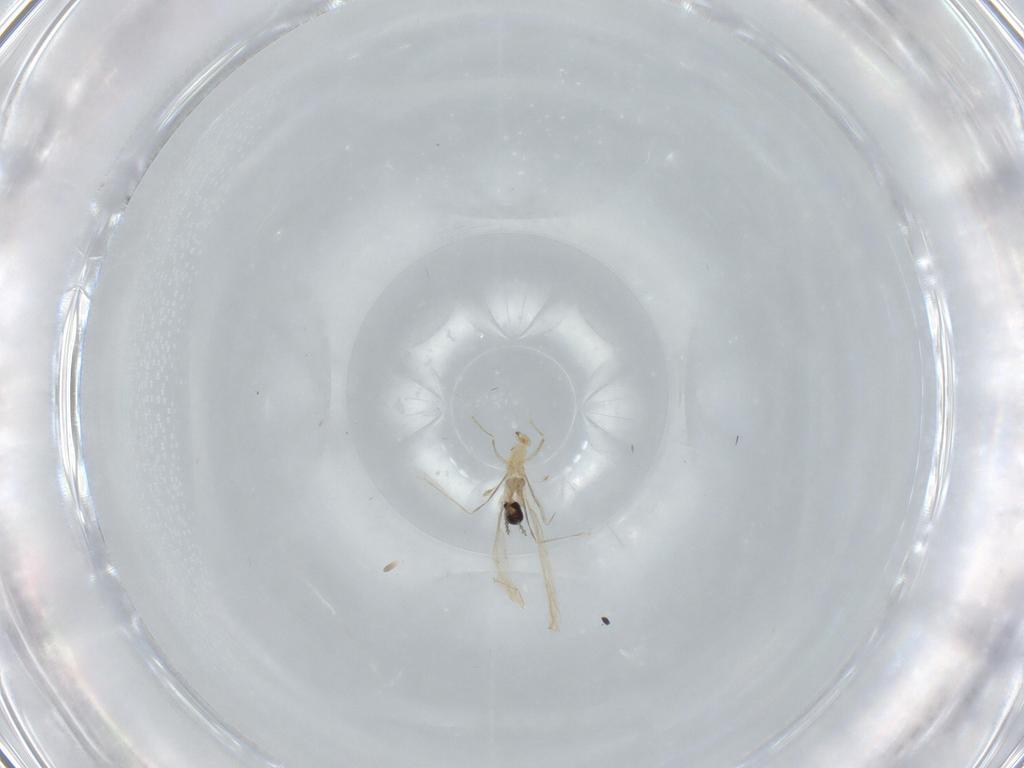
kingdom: Animalia
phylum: Arthropoda
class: Insecta
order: Diptera
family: Cecidomyiidae
